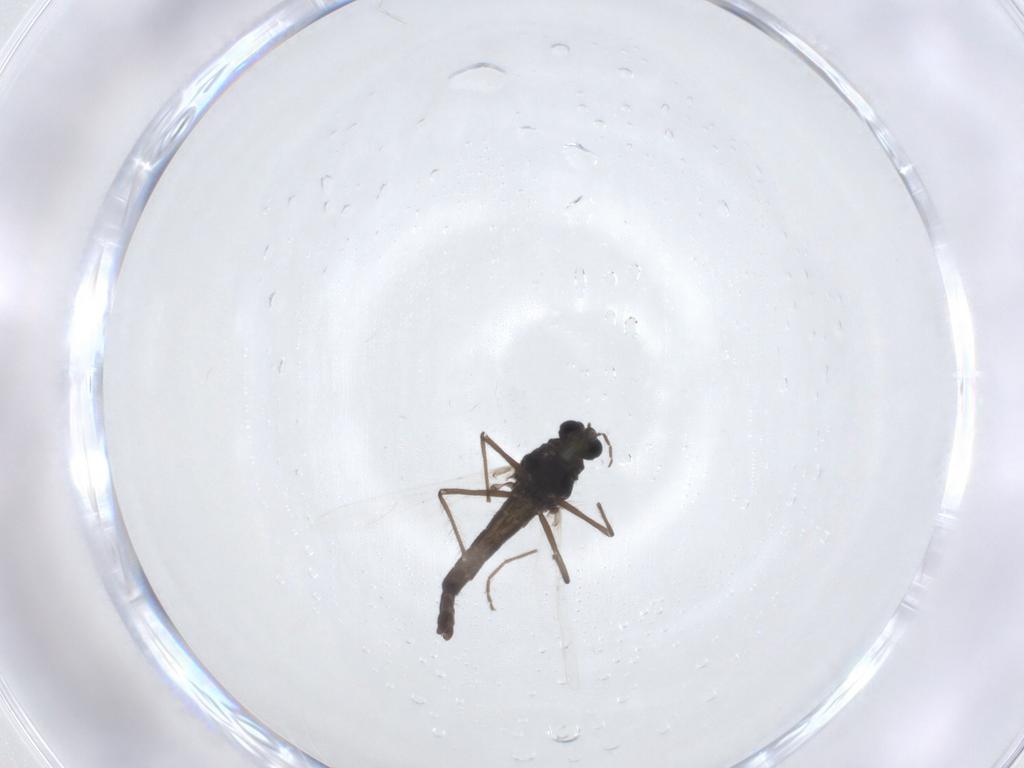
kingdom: Animalia
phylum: Arthropoda
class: Insecta
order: Diptera
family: Chironomidae
